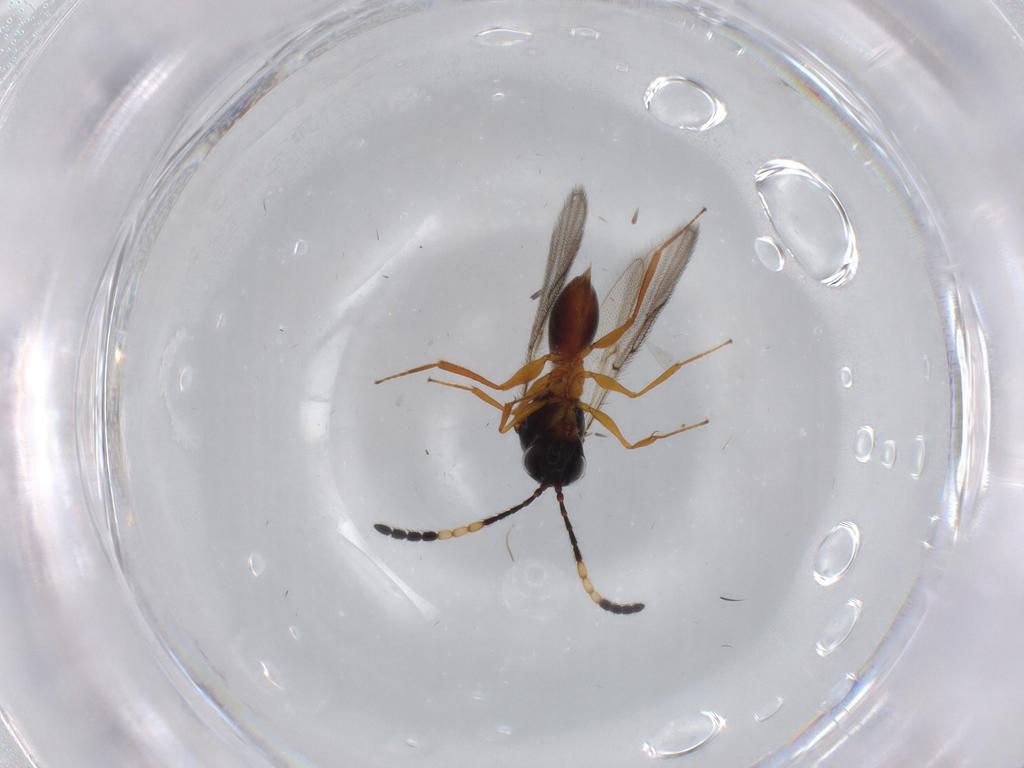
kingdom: Animalia
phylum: Arthropoda
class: Insecta
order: Hymenoptera
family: Figitidae
